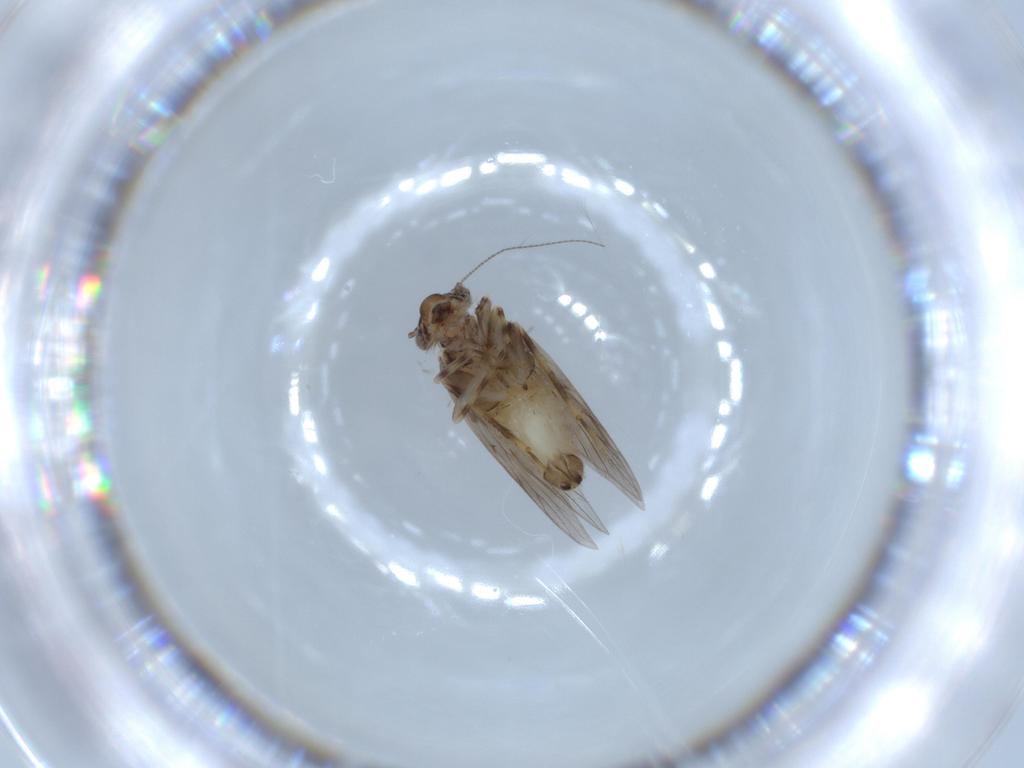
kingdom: Animalia
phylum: Arthropoda
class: Insecta
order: Psocodea
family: Lepidopsocidae
